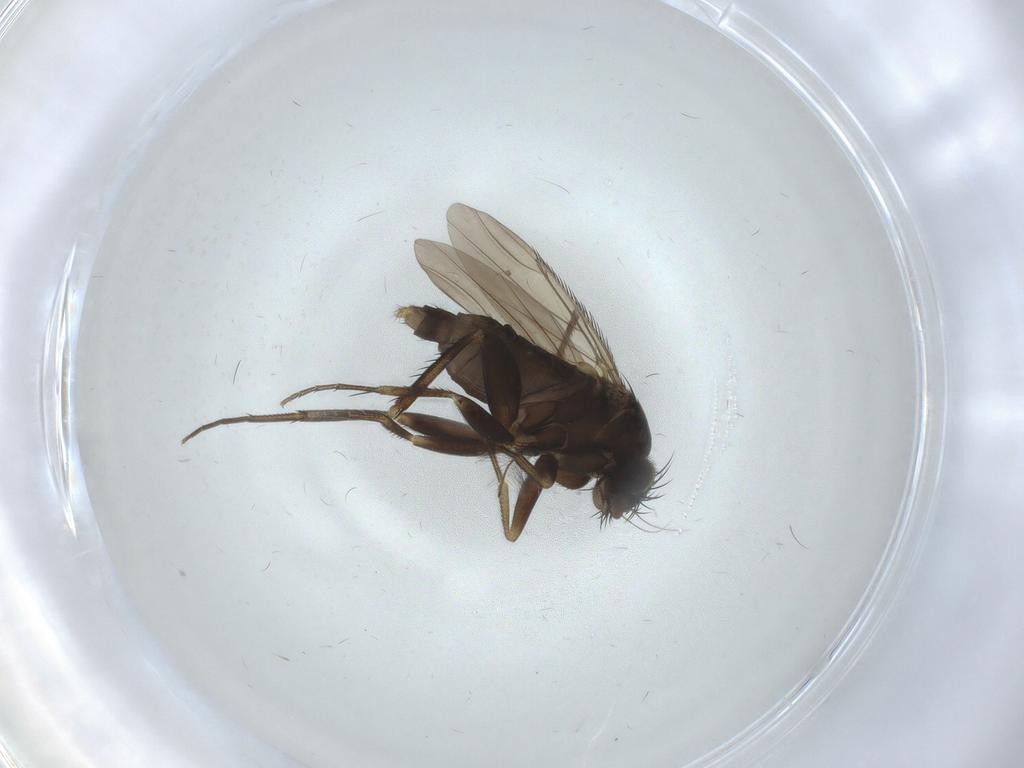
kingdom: Animalia
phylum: Arthropoda
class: Insecta
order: Diptera
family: Phoridae
